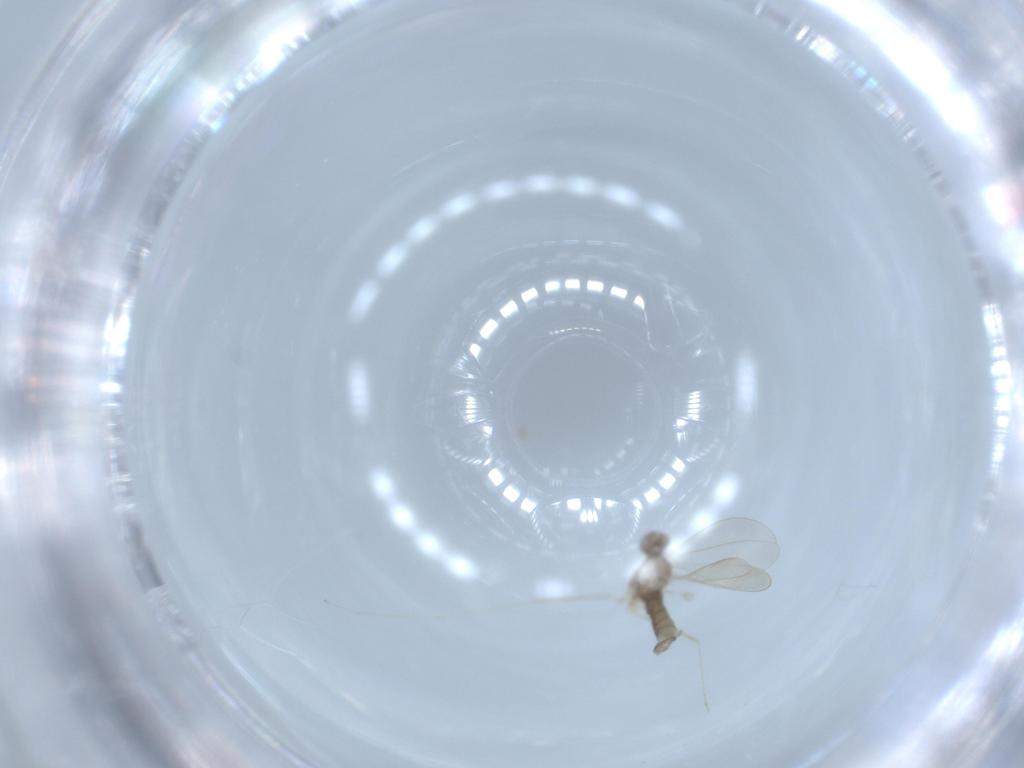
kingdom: Animalia
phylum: Arthropoda
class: Insecta
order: Diptera
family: Cecidomyiidae
